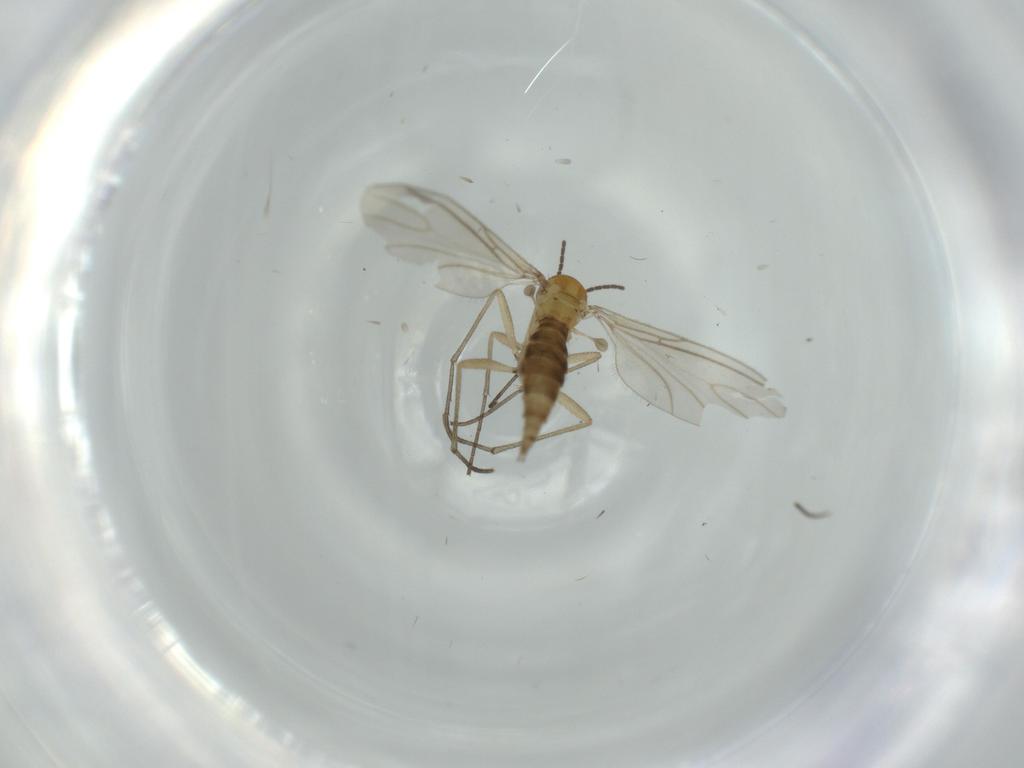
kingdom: Animalia
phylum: Arthropoda
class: Insecta
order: Diptera
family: Sciaridae
